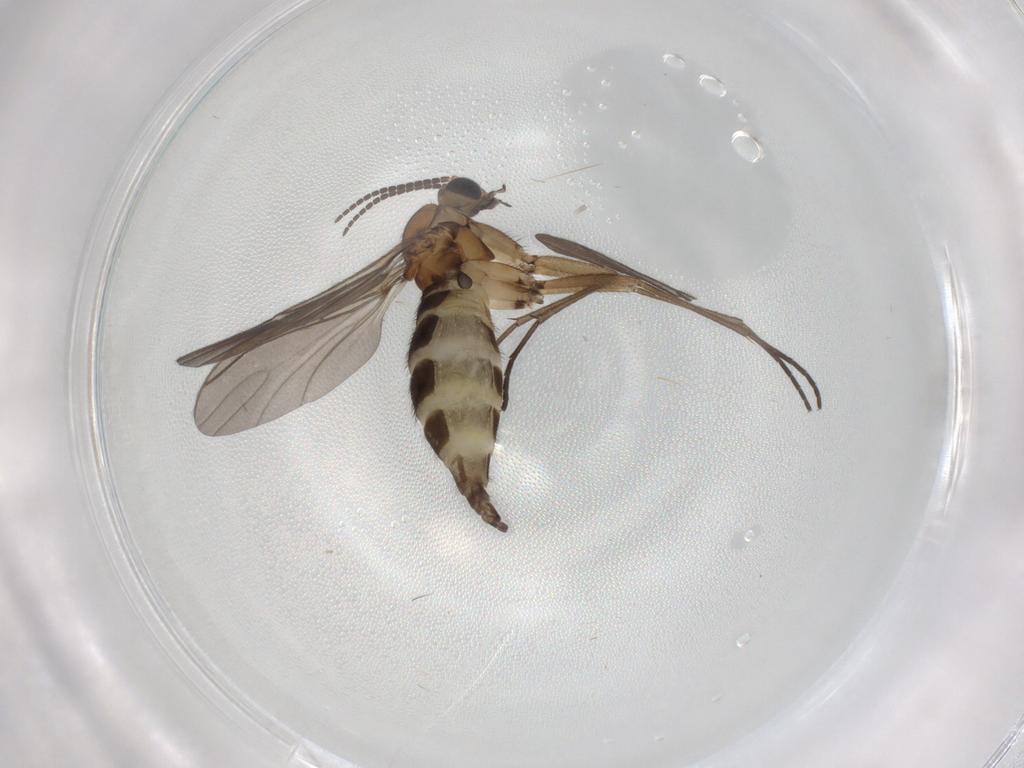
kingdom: Animalia
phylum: Arthropoda
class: Insecta
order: Diptera
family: Sciaridae
